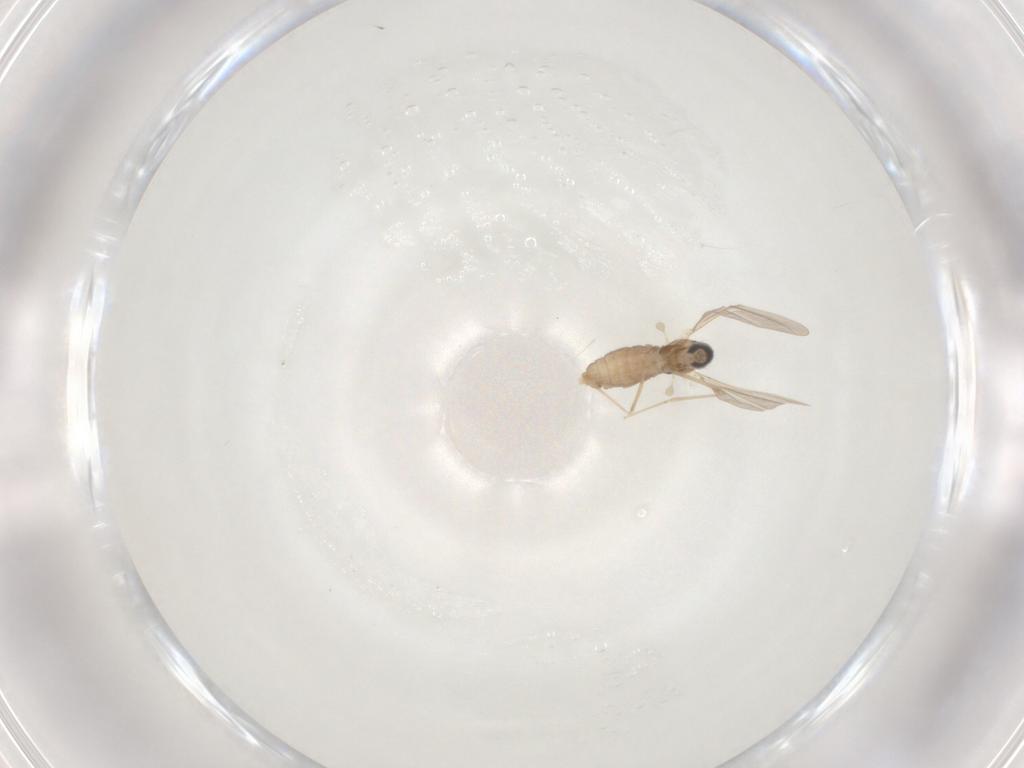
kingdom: Animalia
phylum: Arthropoda
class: Insecta
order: Diptera
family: Cecidomyiidae
